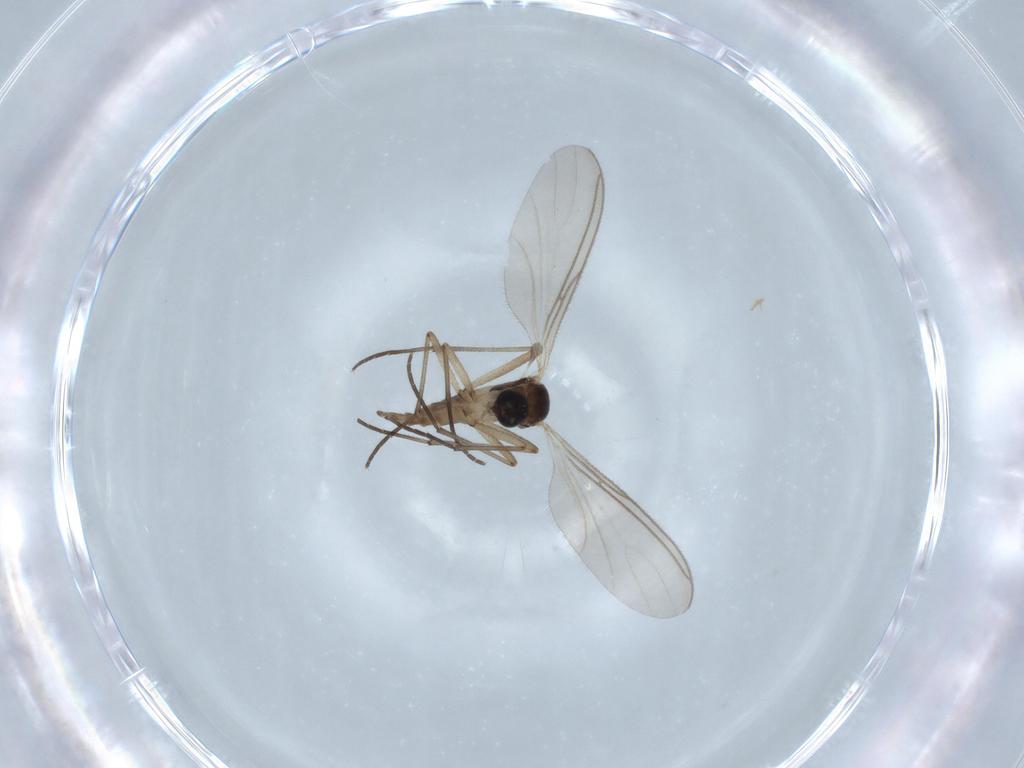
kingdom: Animalia
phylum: Arthropoda
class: Insecta
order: Diptera
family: Sciaridae
